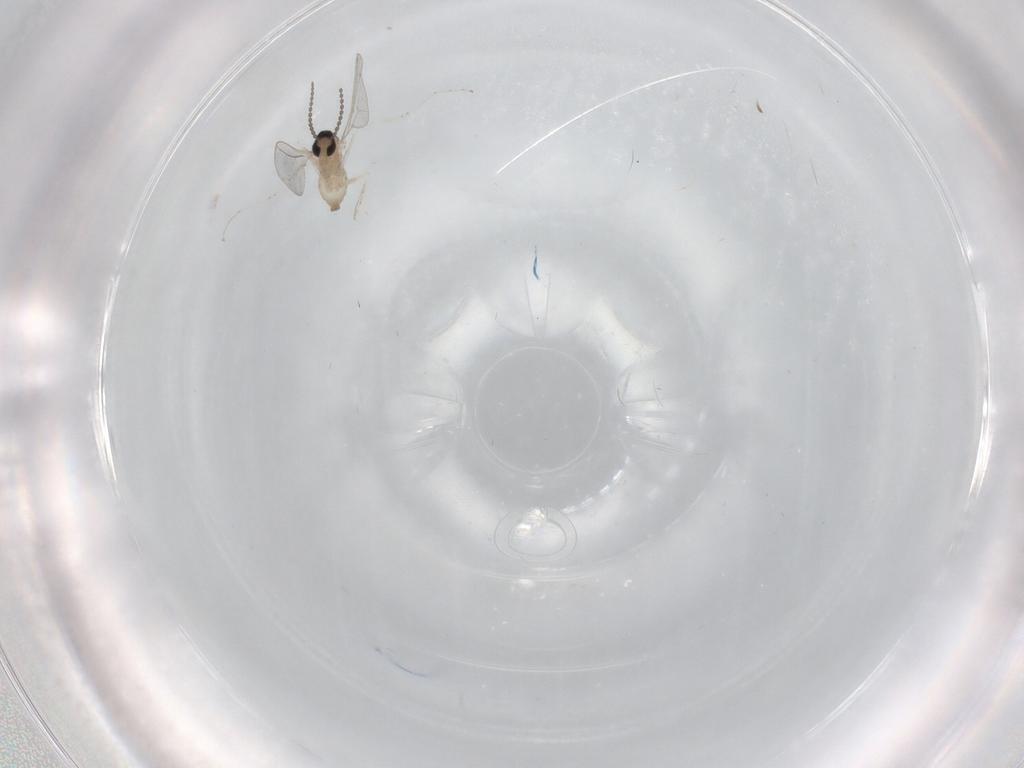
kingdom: Animalia
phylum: Arthropoda
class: Insecta
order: Diptera
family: Cecidomyiidae
